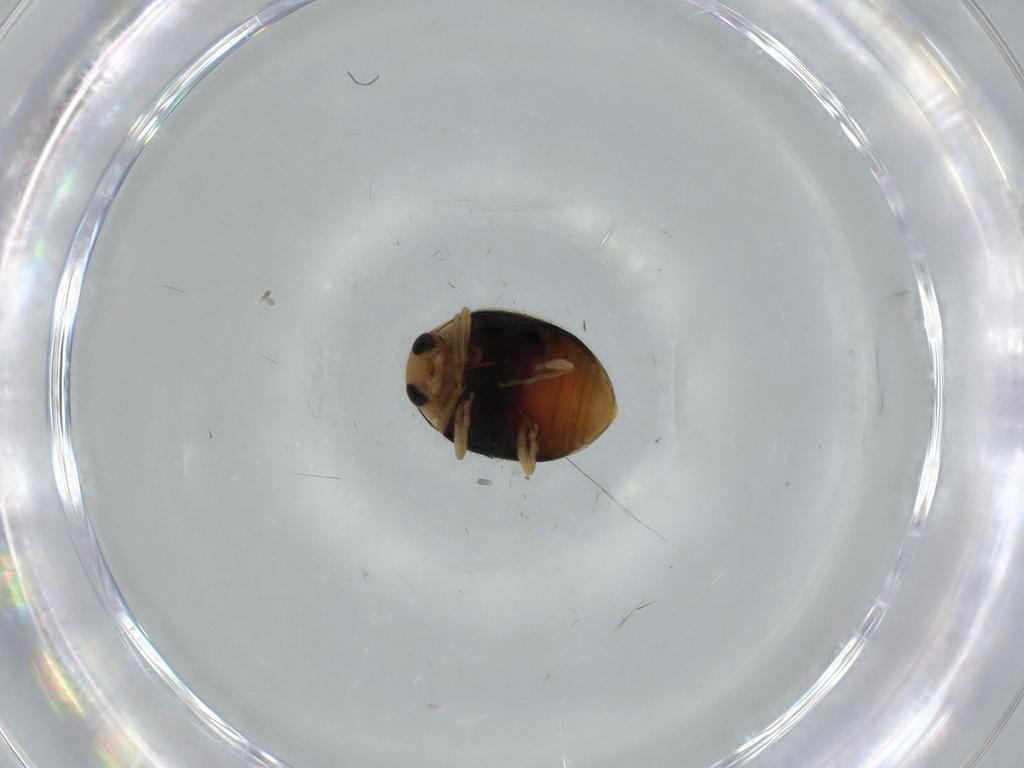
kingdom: Animalia
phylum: Arthropoda
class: Insecta
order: Coleoptera
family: Coccinellidae
